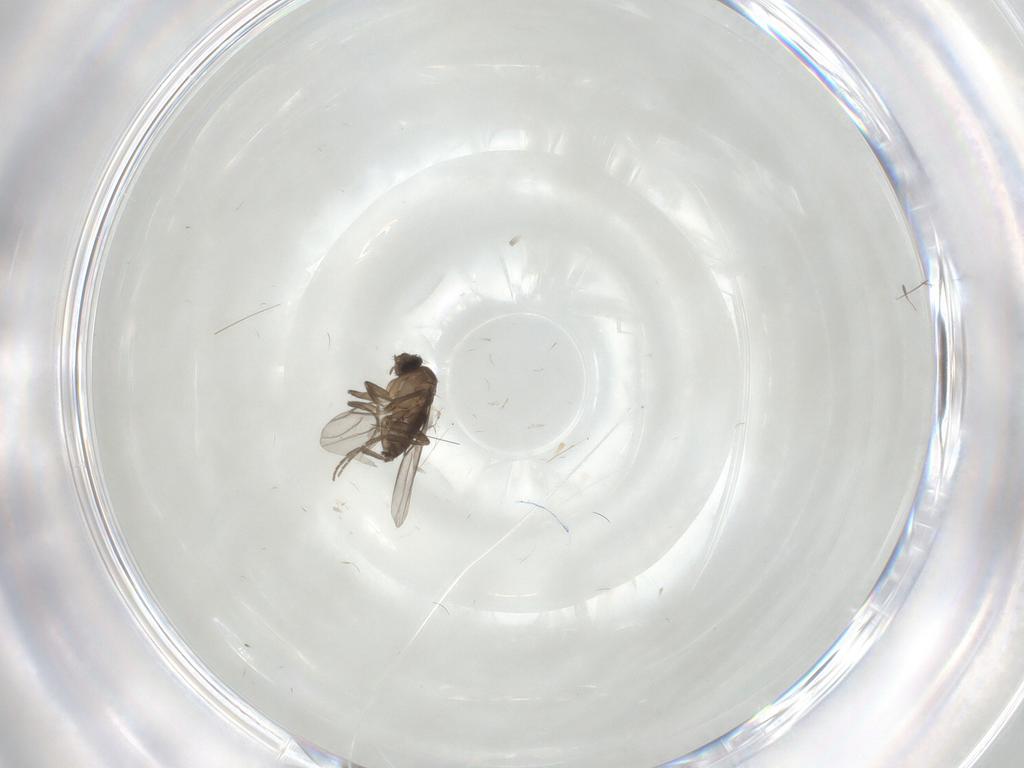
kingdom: Animalia
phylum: Arthropoda
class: Insecta
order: Diptera
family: Phoridae
